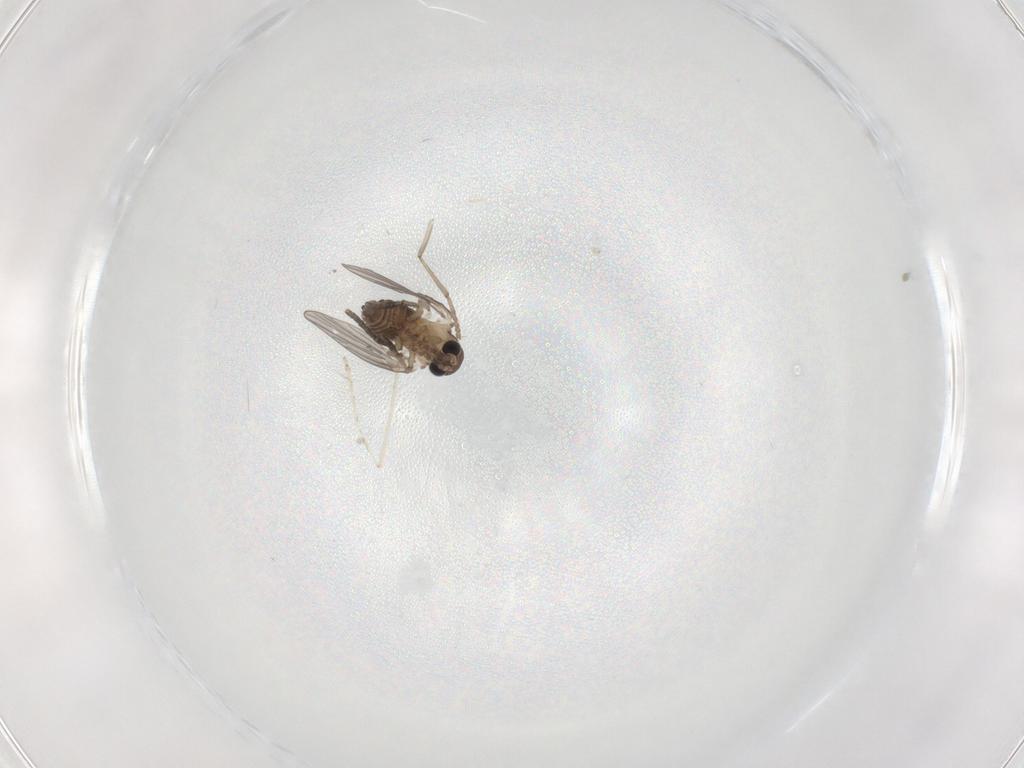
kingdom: Animalia
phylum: Arthropoda
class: Insecta
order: Diptera
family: Cecidomyiidae
